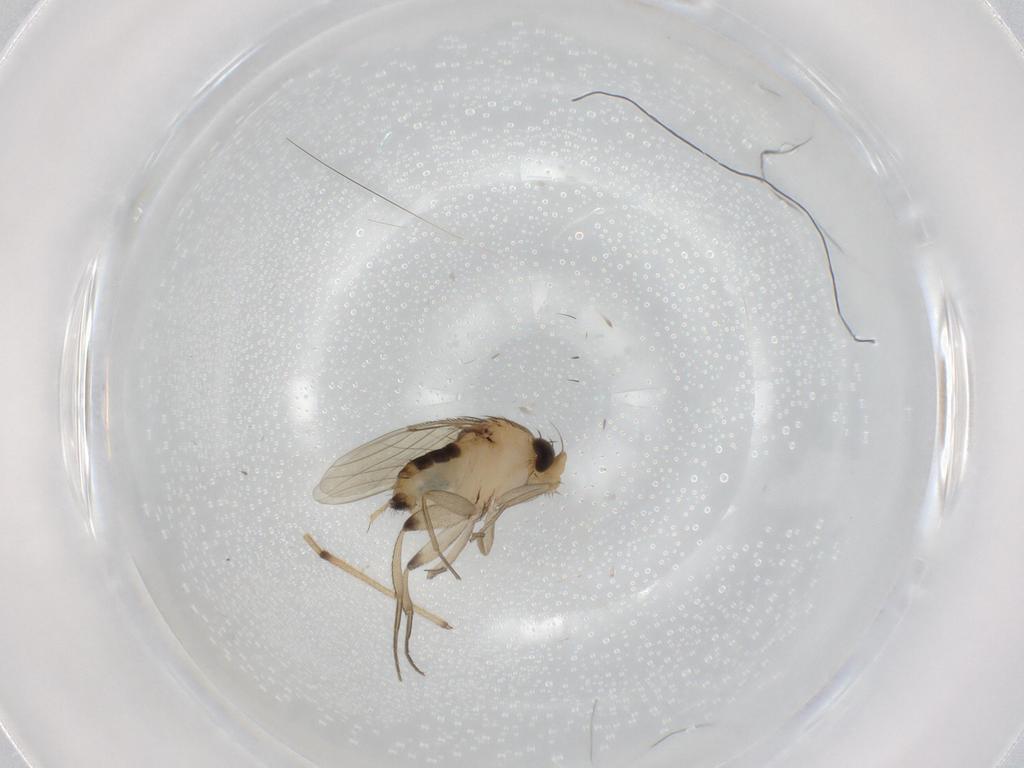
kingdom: Animalia
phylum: Arthropoda
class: Insecta
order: Diptera
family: Phoridae
